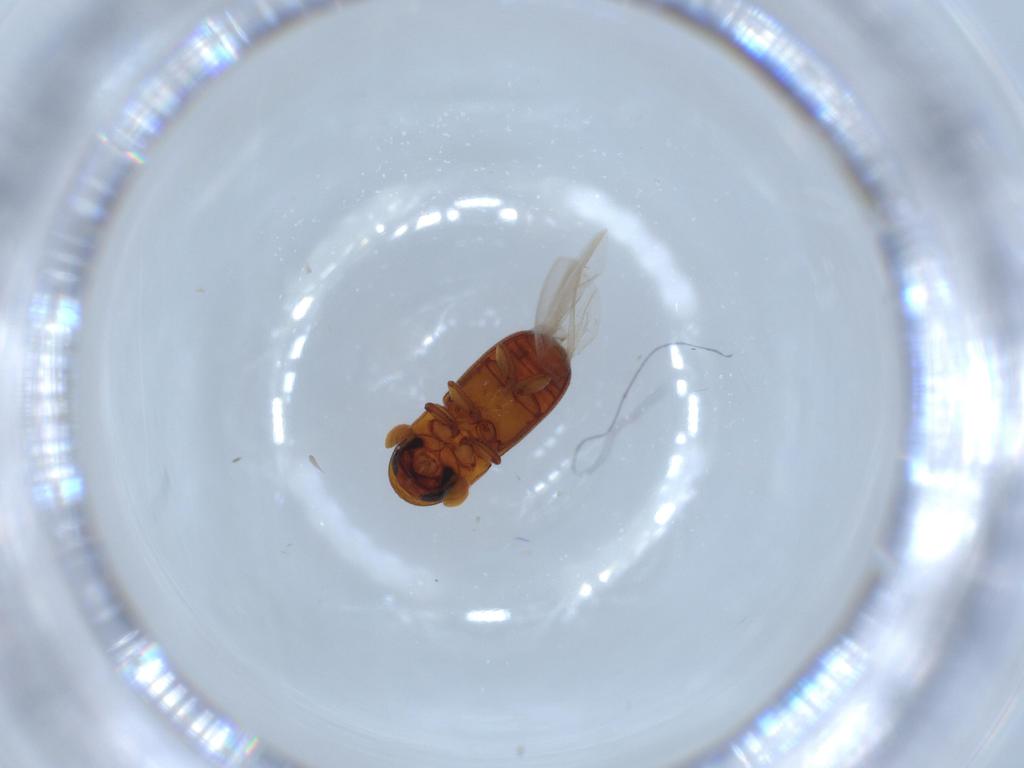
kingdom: Animalia
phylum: Arthropoda
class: Insecta
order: Coleoptera
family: Curculionidae
